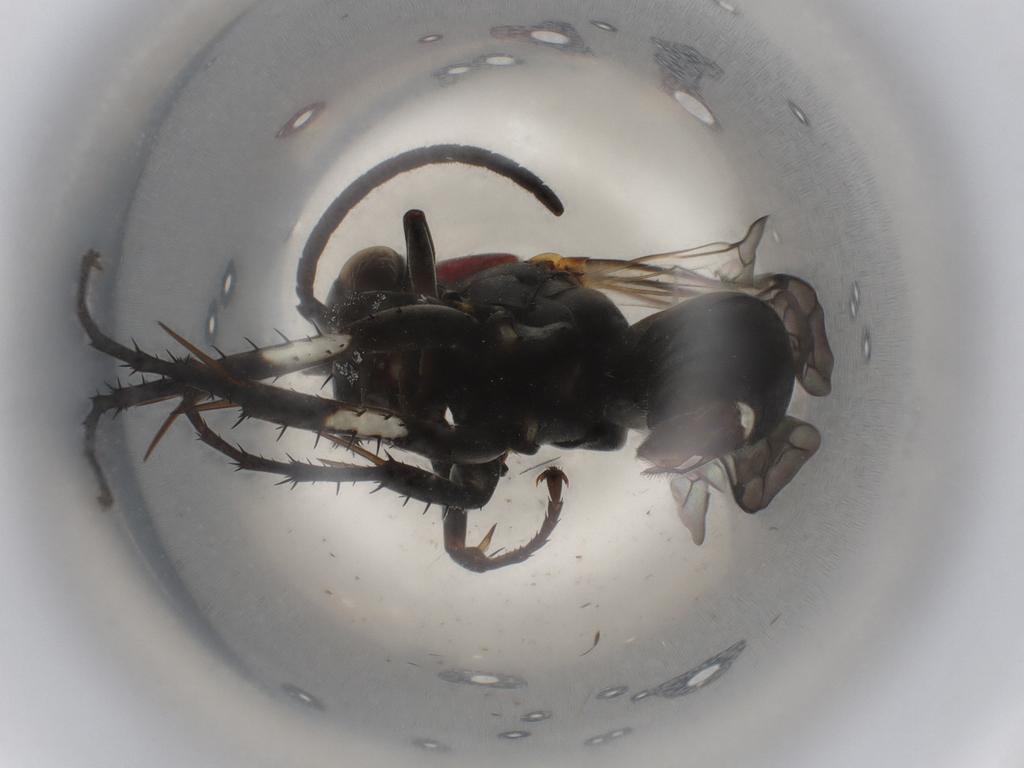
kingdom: Animalia
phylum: Arthropoda
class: Insecta
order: Hymenoptera
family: Pompilidae
